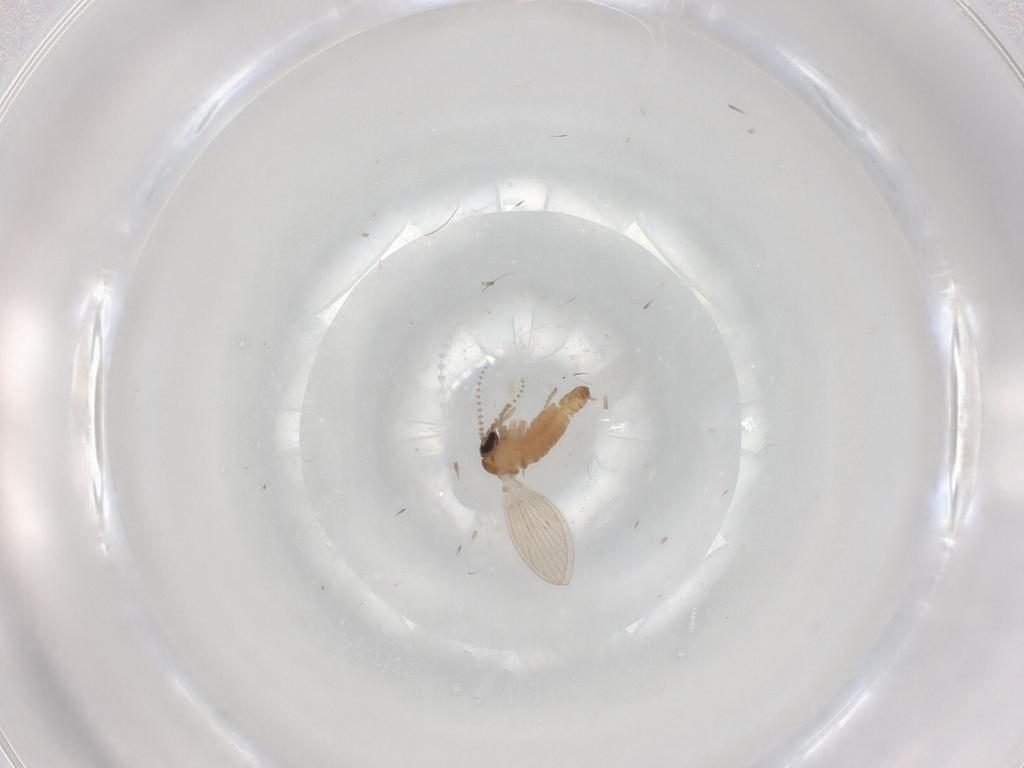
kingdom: Animalia
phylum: Arthropoda
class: Insecta
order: Diptera
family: Psychodidae
